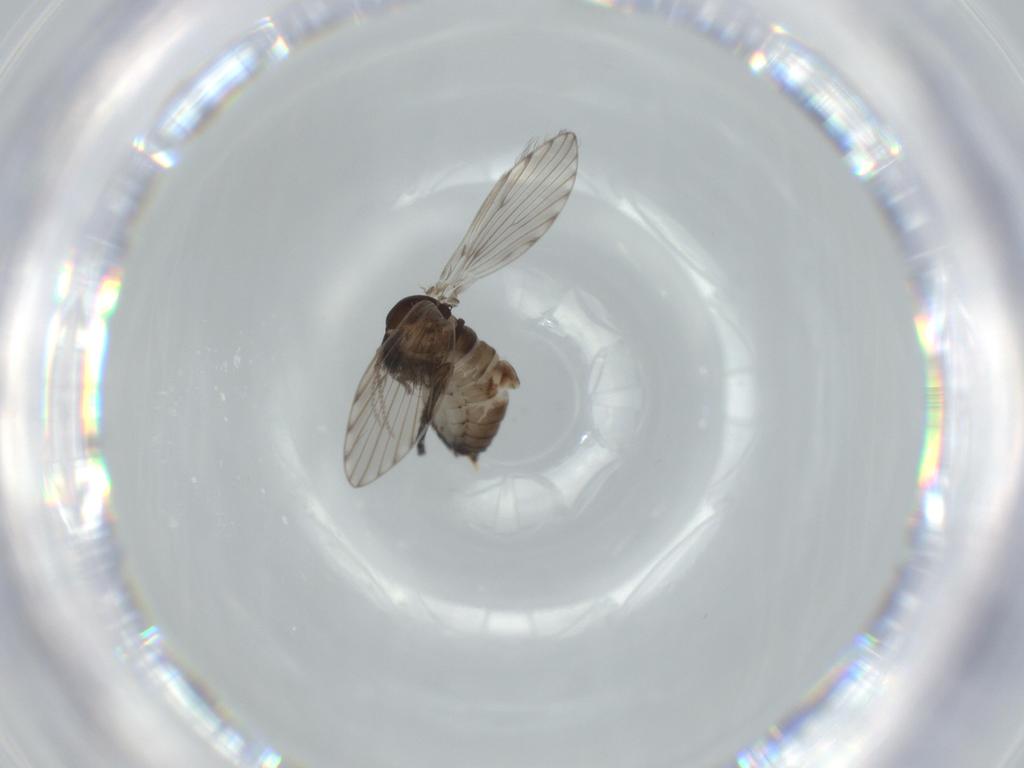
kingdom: Animalia
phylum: Arthropoda
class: Insecta
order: Diptera
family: Psychodidae
